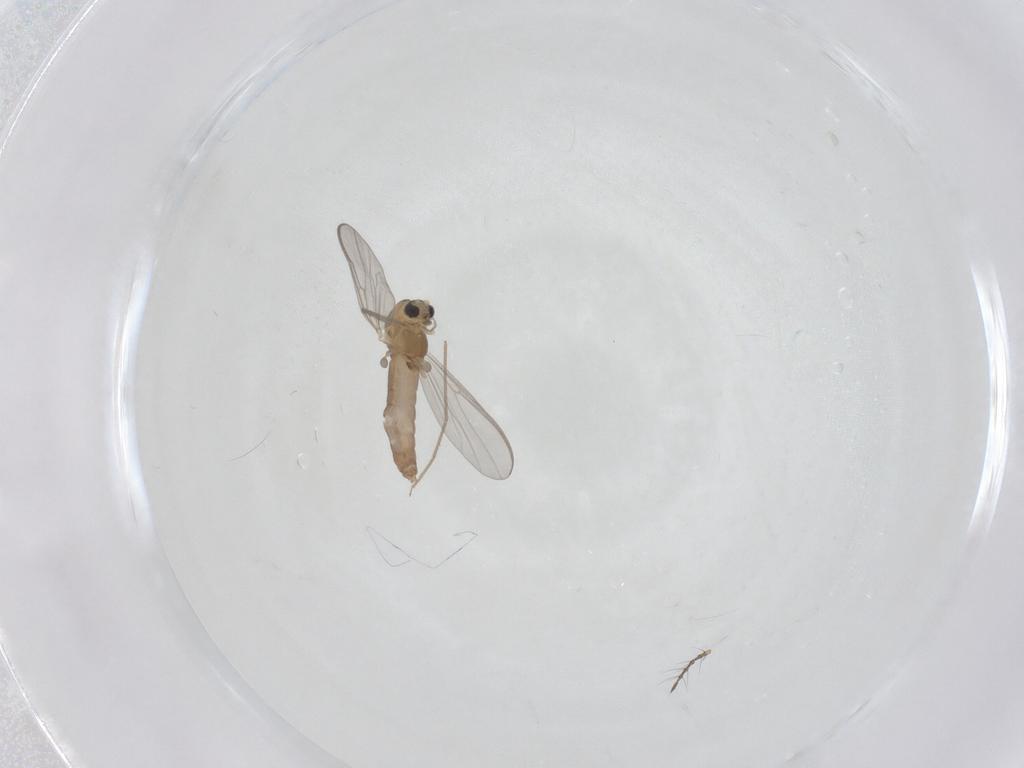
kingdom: Animalia
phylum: Arthropoda
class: Insecta
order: Diptera
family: Chironomidae
